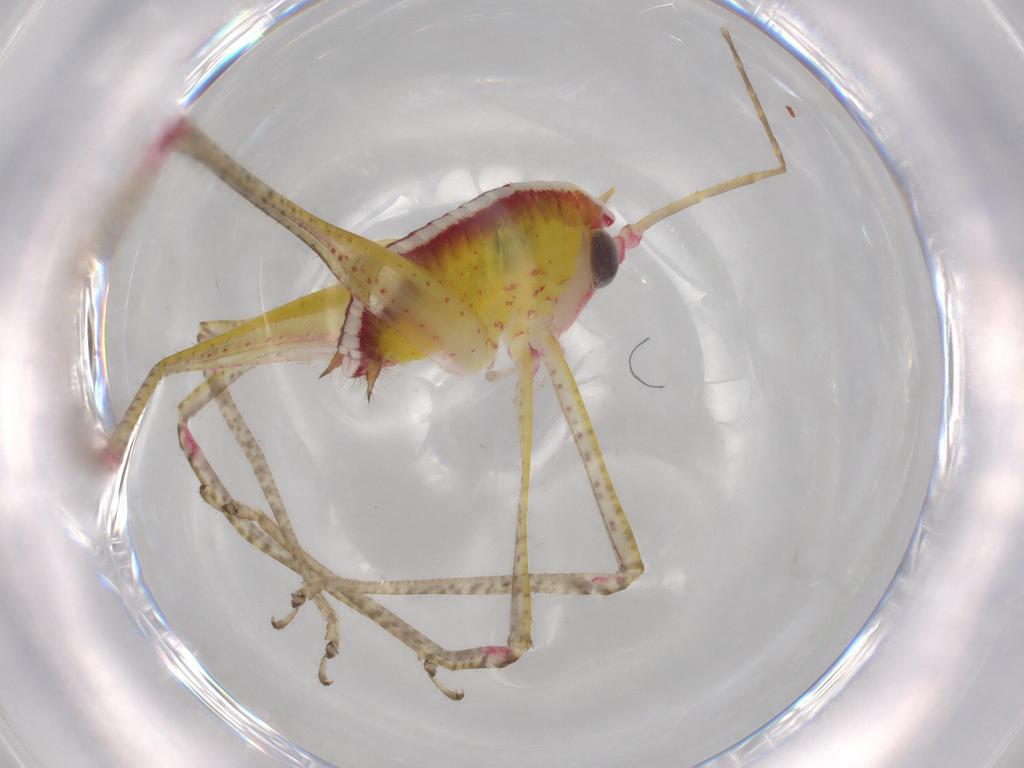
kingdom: Animalia
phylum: Arthropoda
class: Insecta
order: Orthoptera
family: Tettigoniidae
